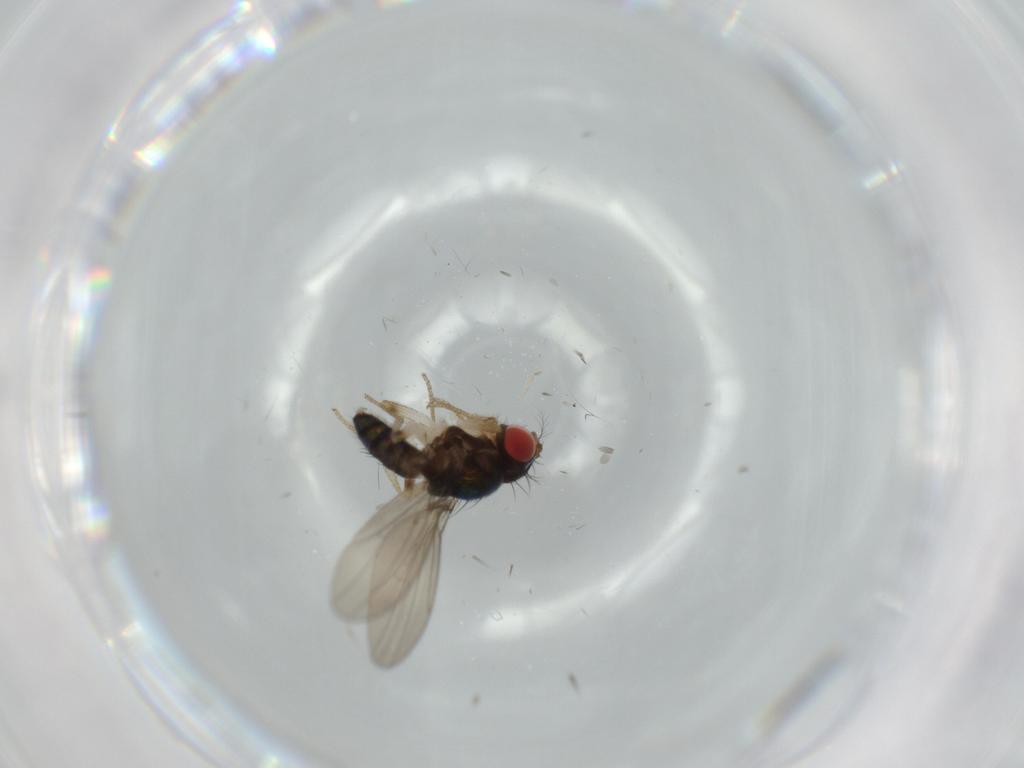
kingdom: Animalia
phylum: Arthropoda
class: Insecta
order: Diptera
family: Drosophilidae
